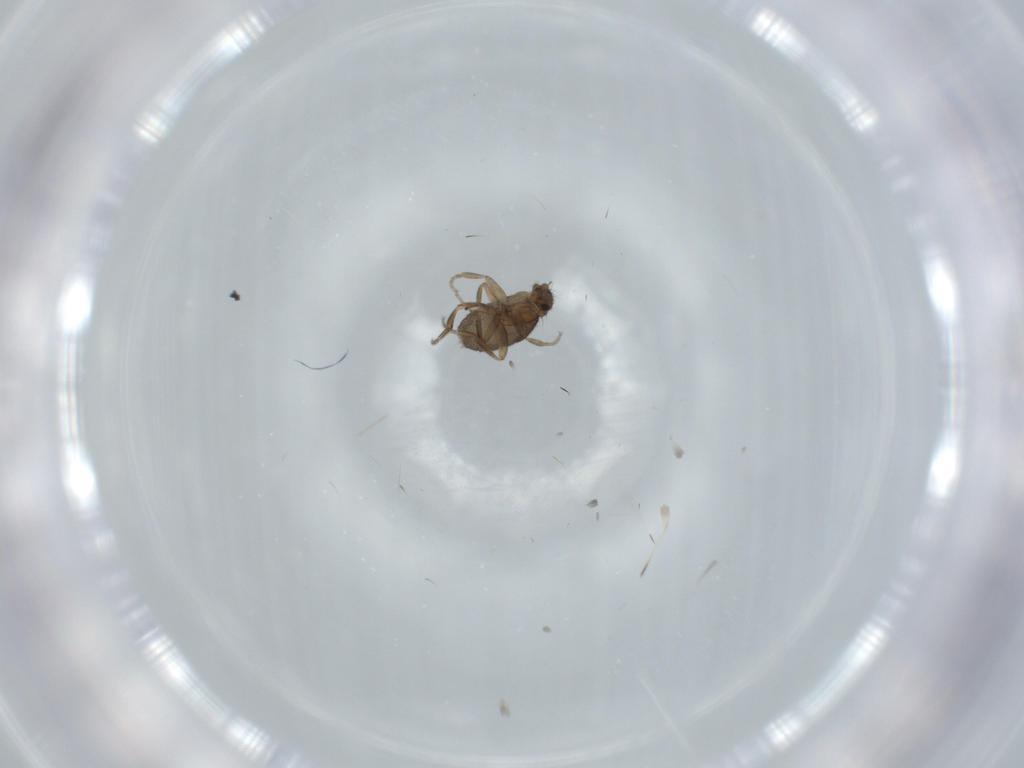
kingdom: Animalia
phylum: Arthropoda
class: Insecta
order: Diptera
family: Phoridae
